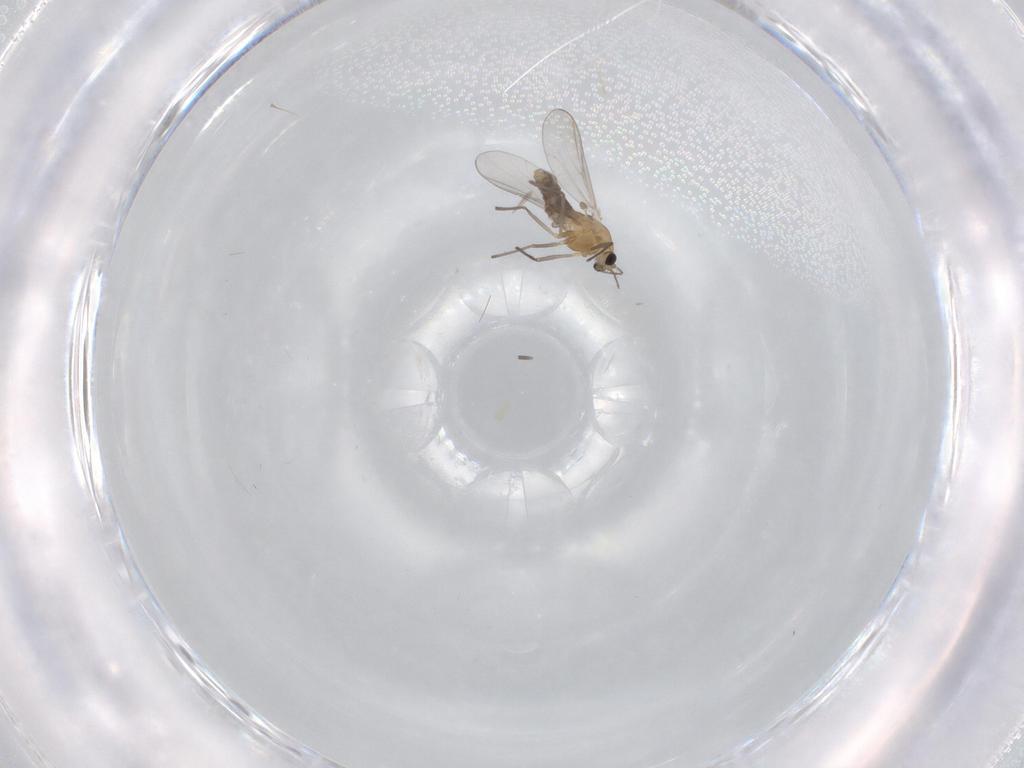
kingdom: Animalia
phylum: Arthropoda
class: Insecta
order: Diptera
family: Chironomidae
